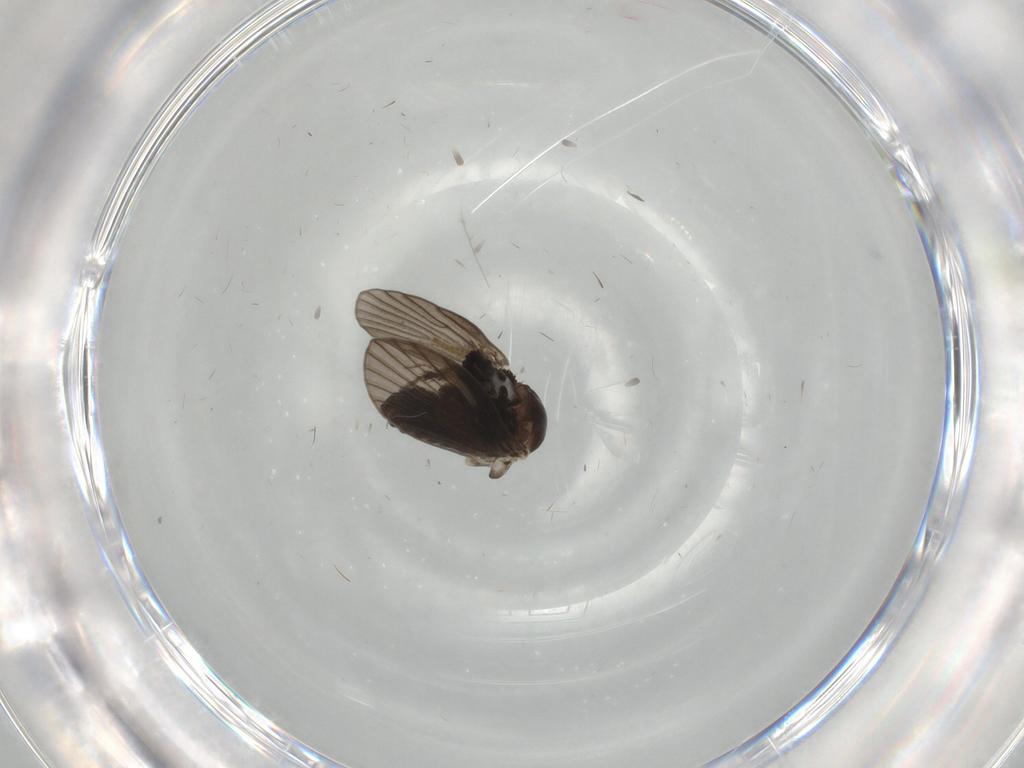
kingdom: Animalia
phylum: Arthropoda
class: Insecta
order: Diptera
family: Psychodidae
